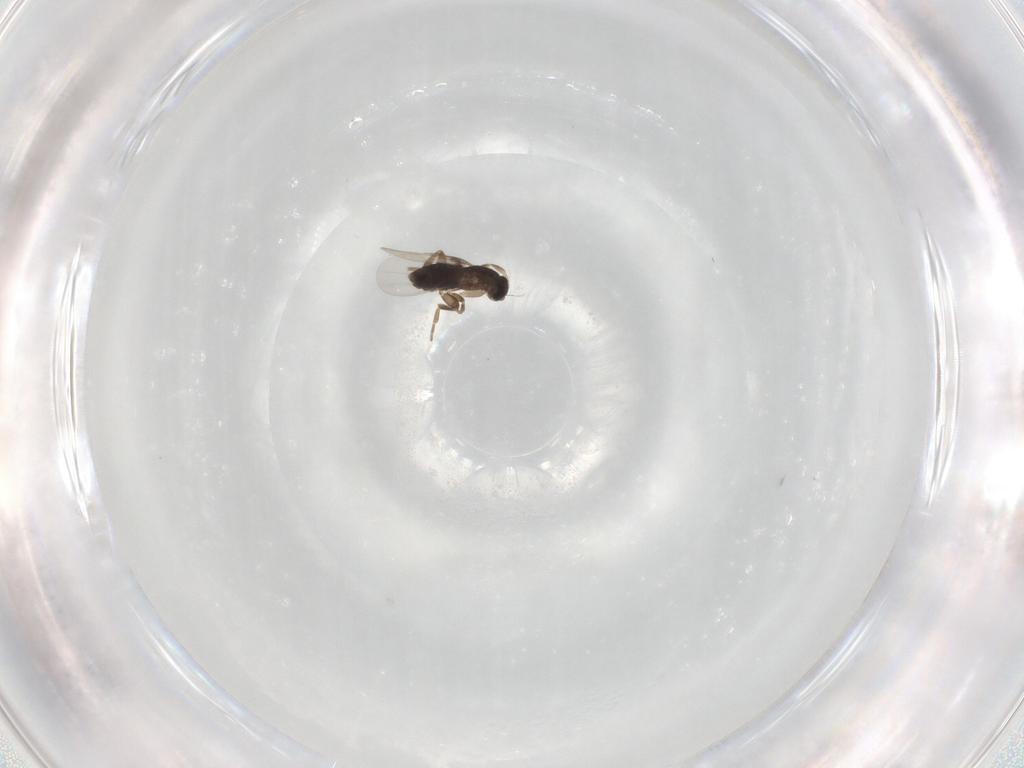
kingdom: Animalia
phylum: Arthropoda
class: Insecta
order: Diptera
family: Phoridae
